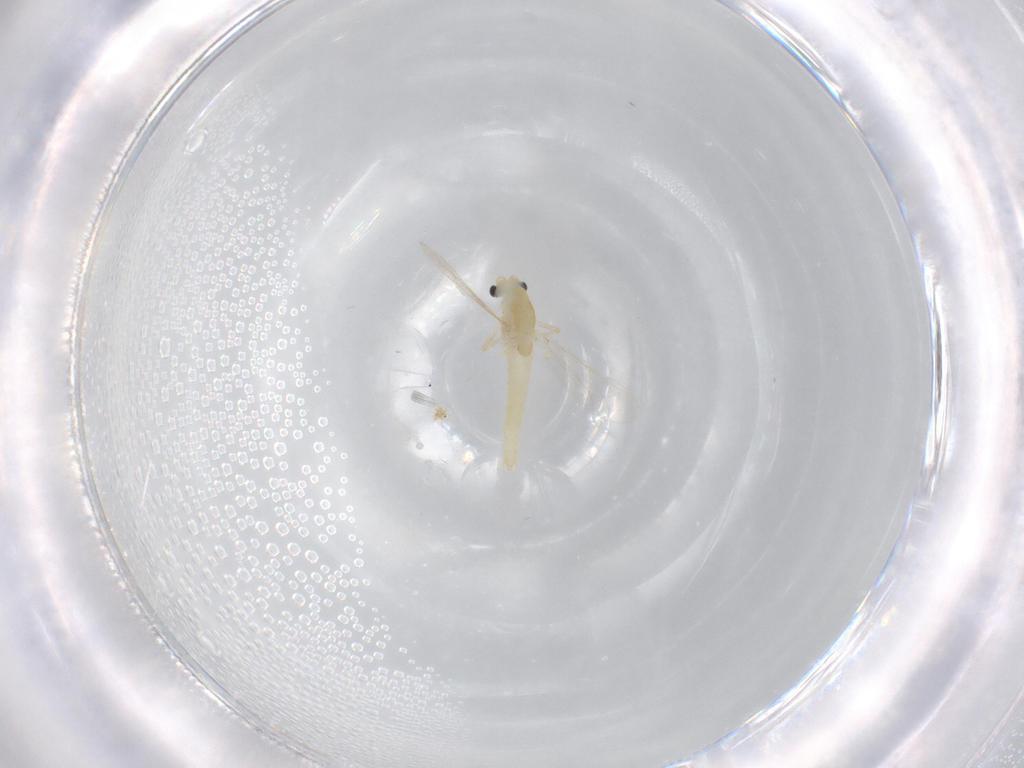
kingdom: Animalia
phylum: Arthropoda
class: Insecta
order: Diptera
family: Chironomidae
